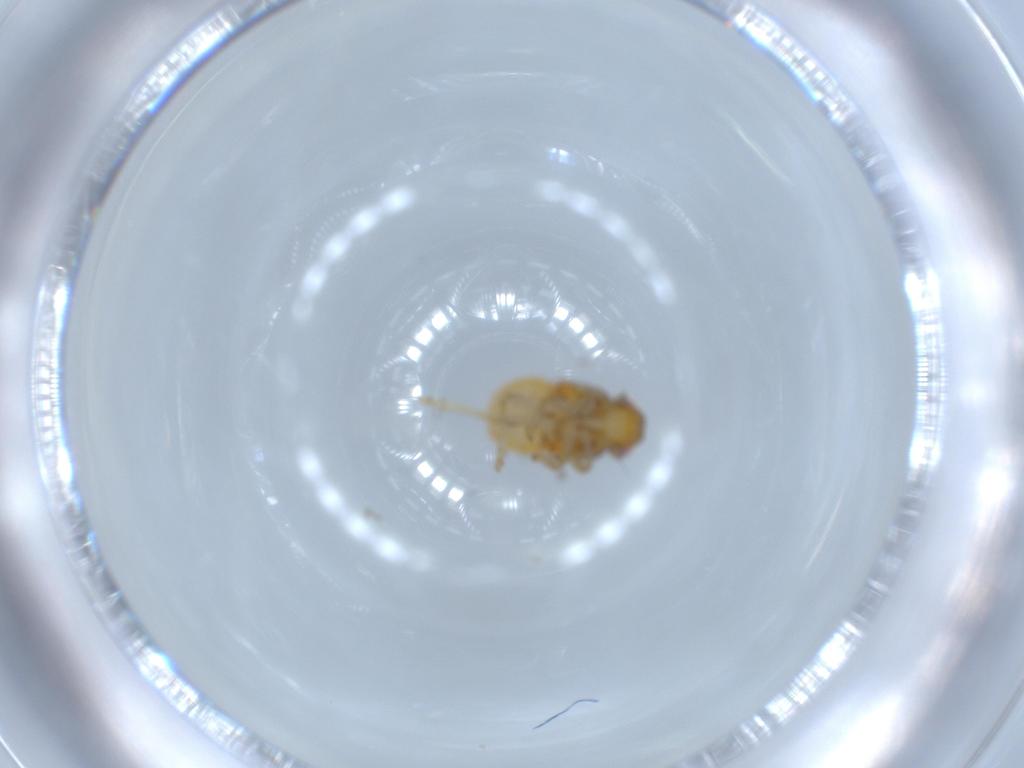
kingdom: Animalia
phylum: Arthropoda
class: Insecta
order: Hemiptera
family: Issidae
